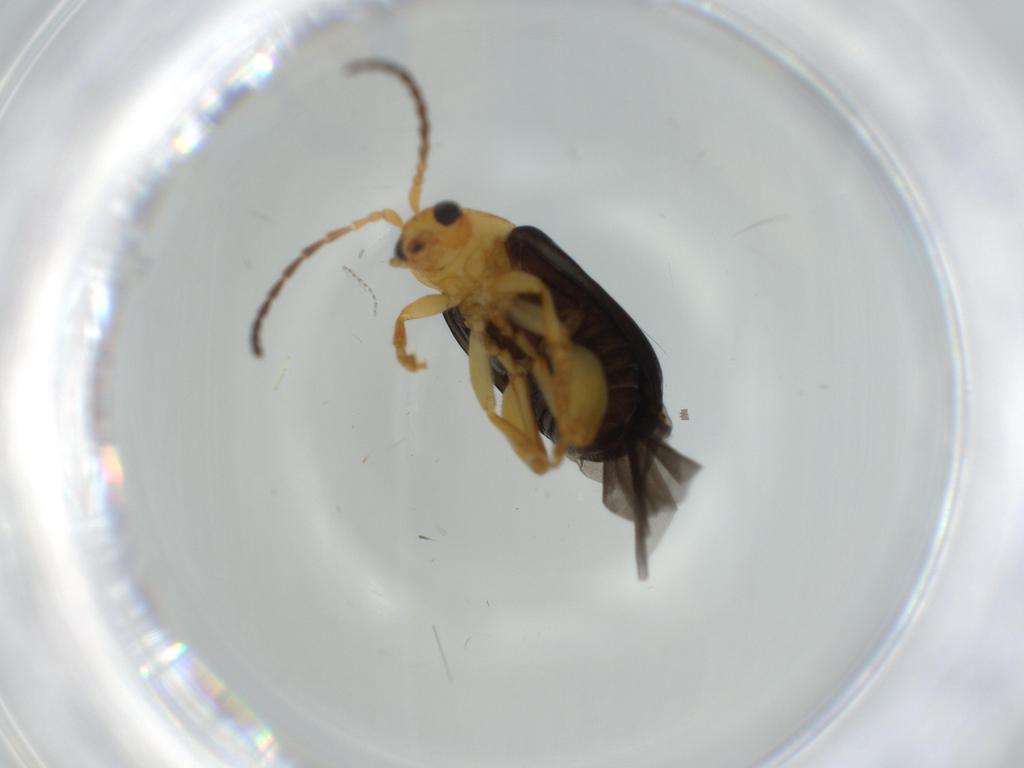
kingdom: Animalia
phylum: Arthropoda
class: Insecta
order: Coleoptera
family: Chrysomelidae
